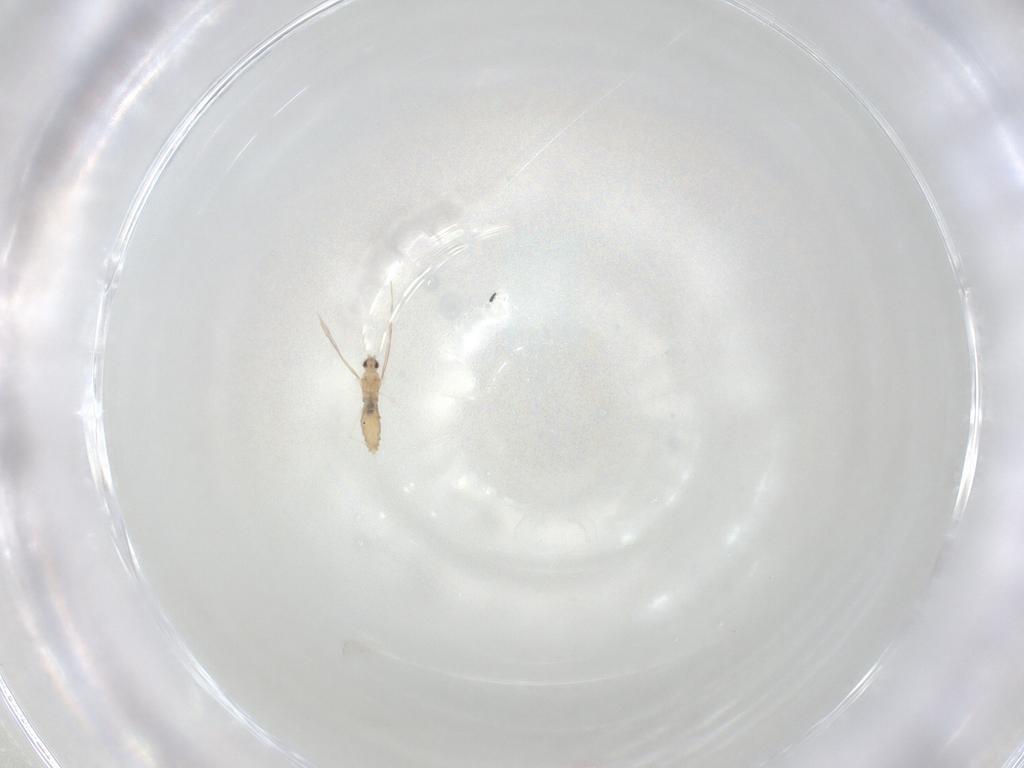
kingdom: Animalia
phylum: Arthropoda
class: Insecta
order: Diptera
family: Cecidomyiidae
